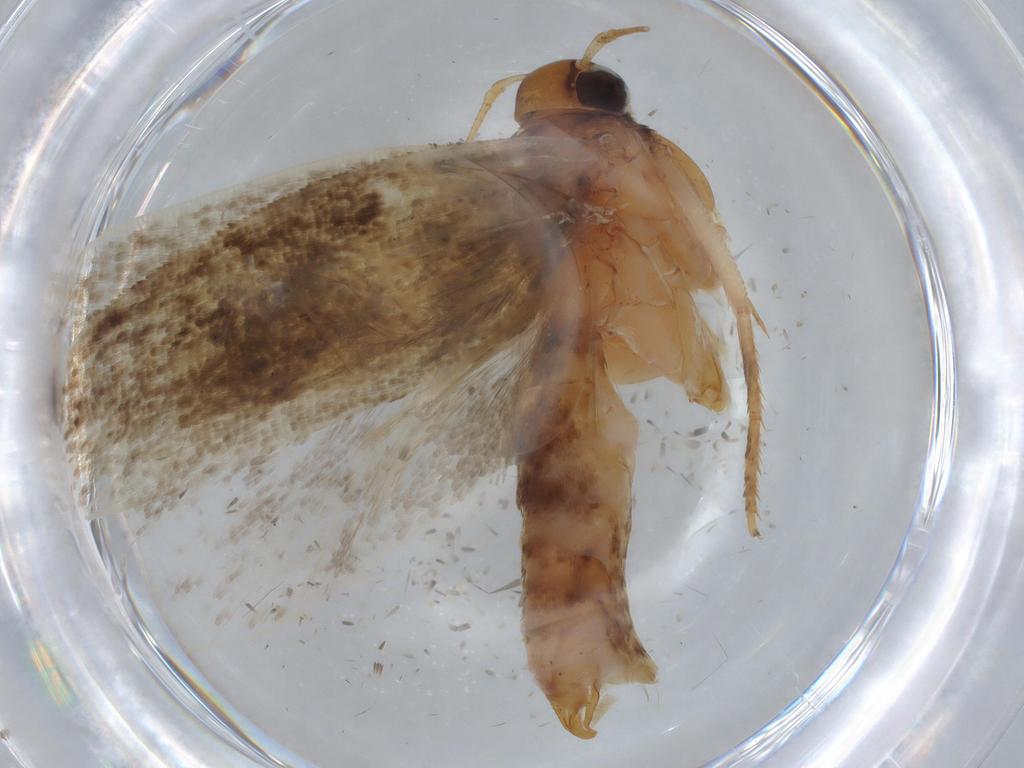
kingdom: Animalia
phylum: Arthropoda
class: Insecta
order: Lepidoptera
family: Gelechiidae
